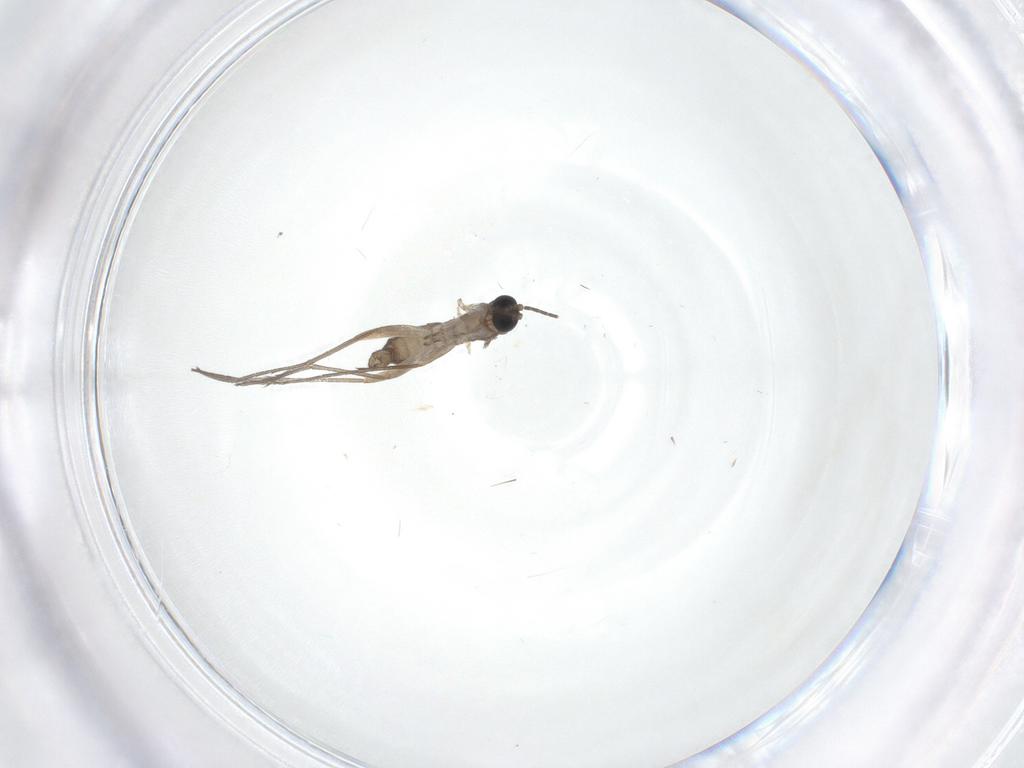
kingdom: Animalia
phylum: Arthropoda
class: Insecta
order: Diptera
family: Sciaridae
